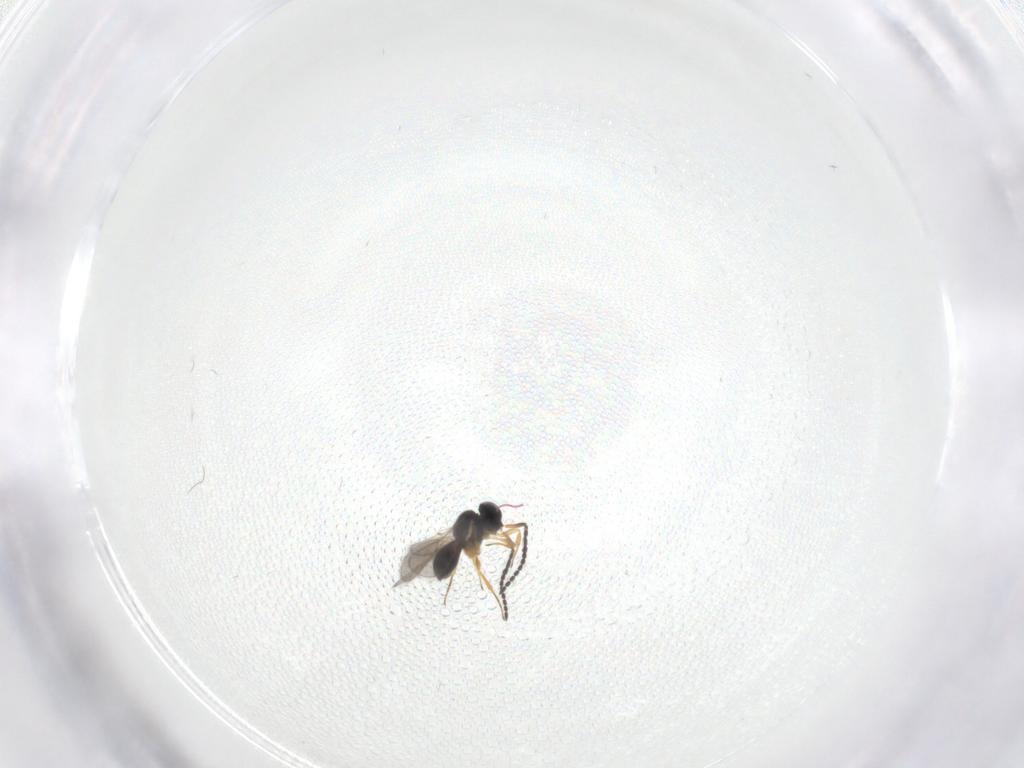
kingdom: Animalia
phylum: Arthropoda
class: Insecta
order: Hymenoptera
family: Scelionidae
